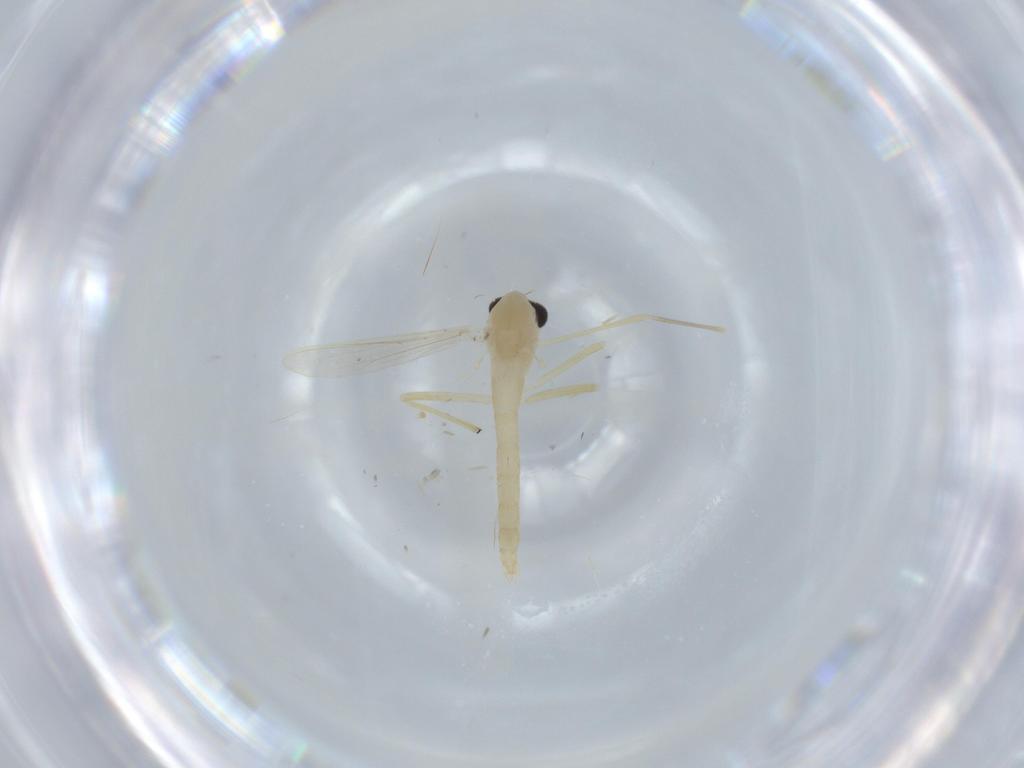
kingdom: Animalia
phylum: Arthropoda
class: Insecta
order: Diptera
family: Chironomidae
